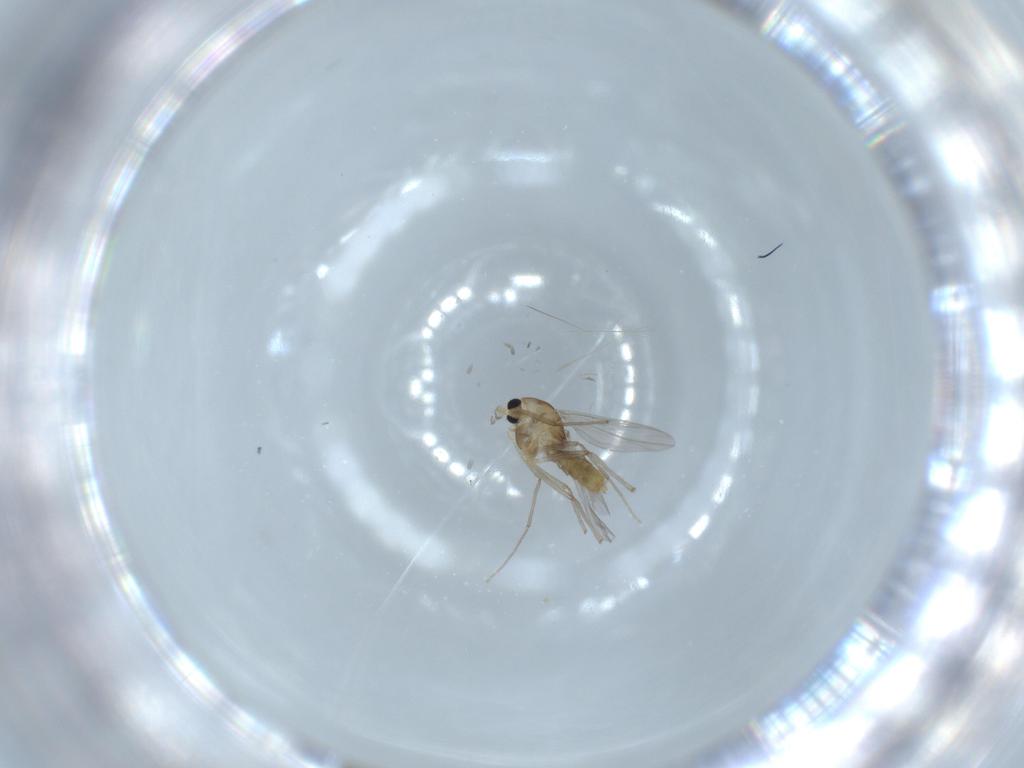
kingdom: Animalia
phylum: Arthropoda
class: Insecta
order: Diptera
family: Chironomidae
